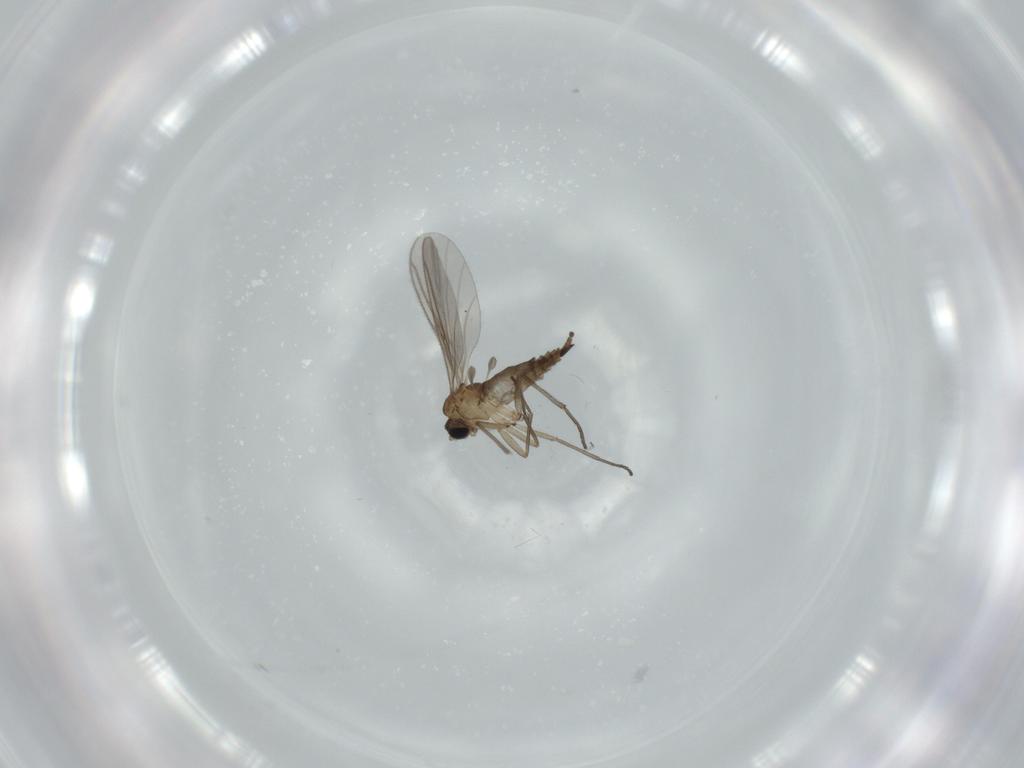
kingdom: Animalia
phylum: Arthropoda
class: Insecta
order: Diptera
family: Sciaridae
